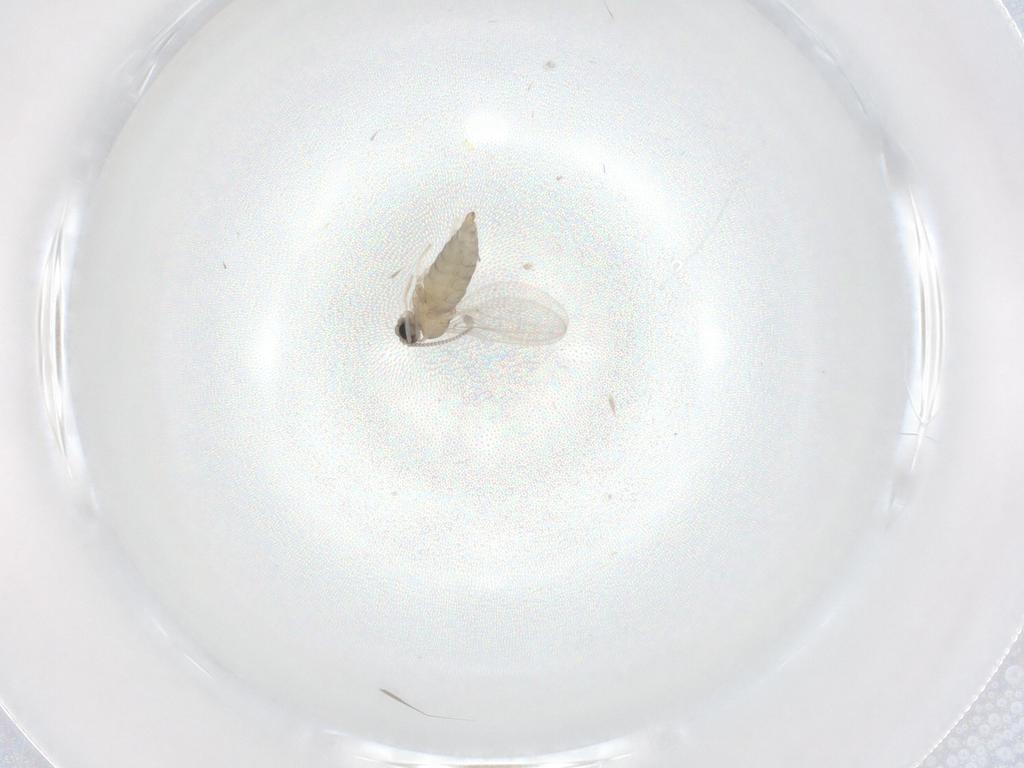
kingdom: Animalia
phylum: Arthropoda
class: Insecta
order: Diptera
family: Cecidomyiidae
